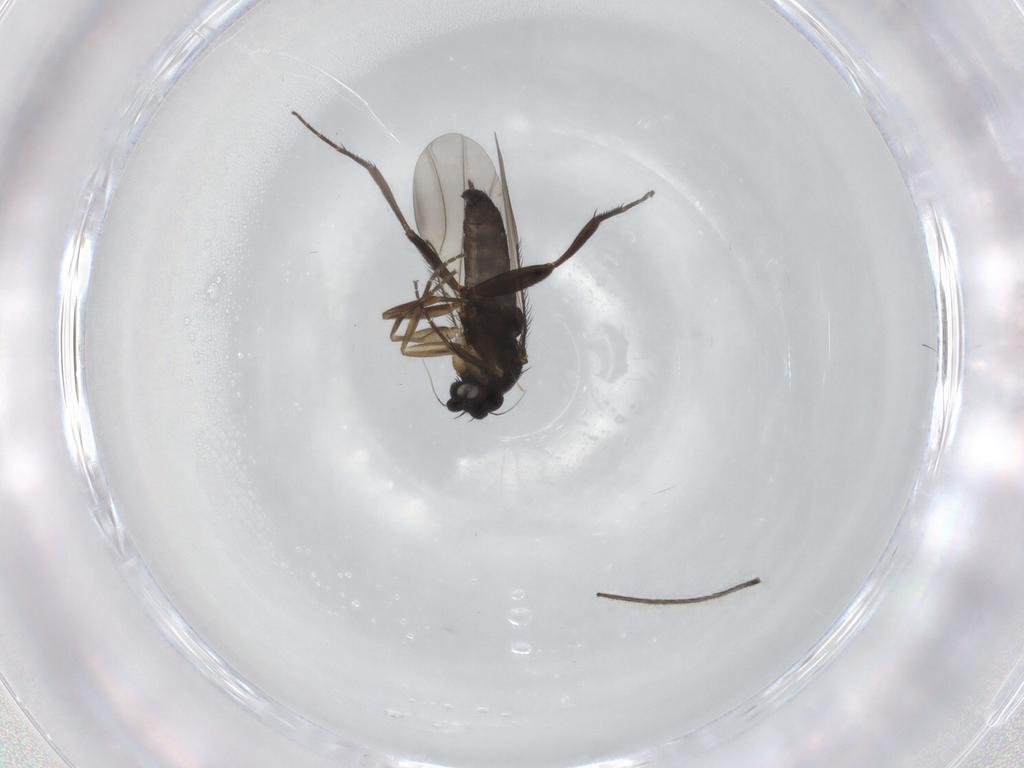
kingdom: Animalia
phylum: Arthropoda
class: Insecta
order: Diptera
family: Phoridae
